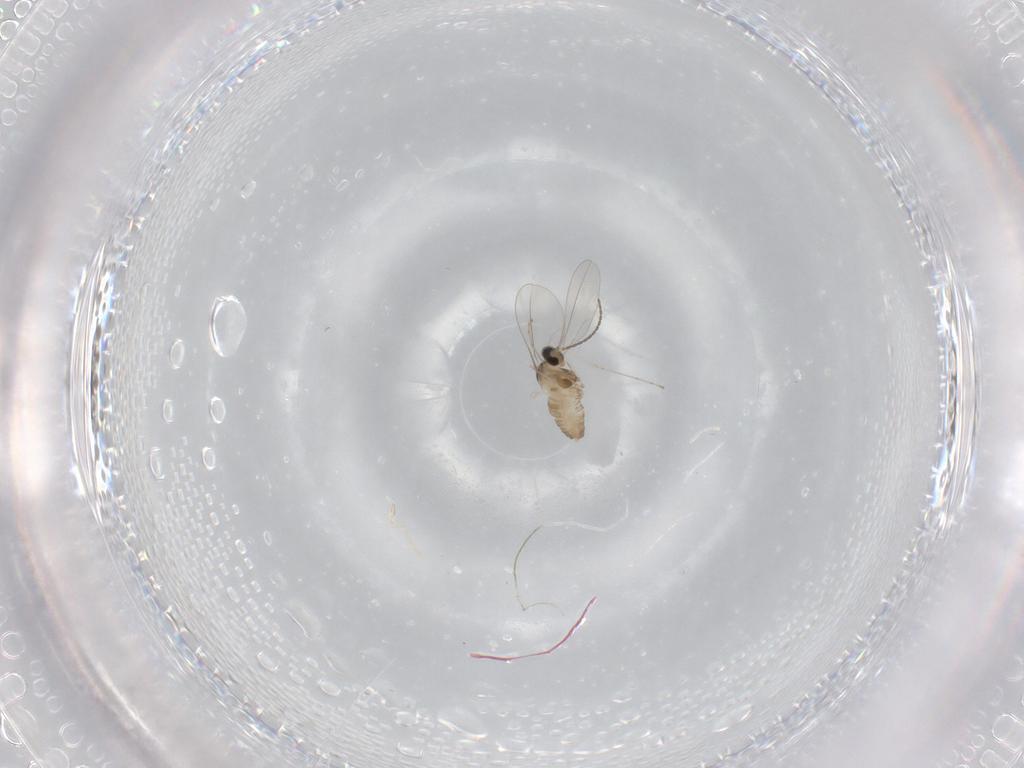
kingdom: Animalia
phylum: Arthropoda
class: Insecta
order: Diptera
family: Cecidomyiidae
